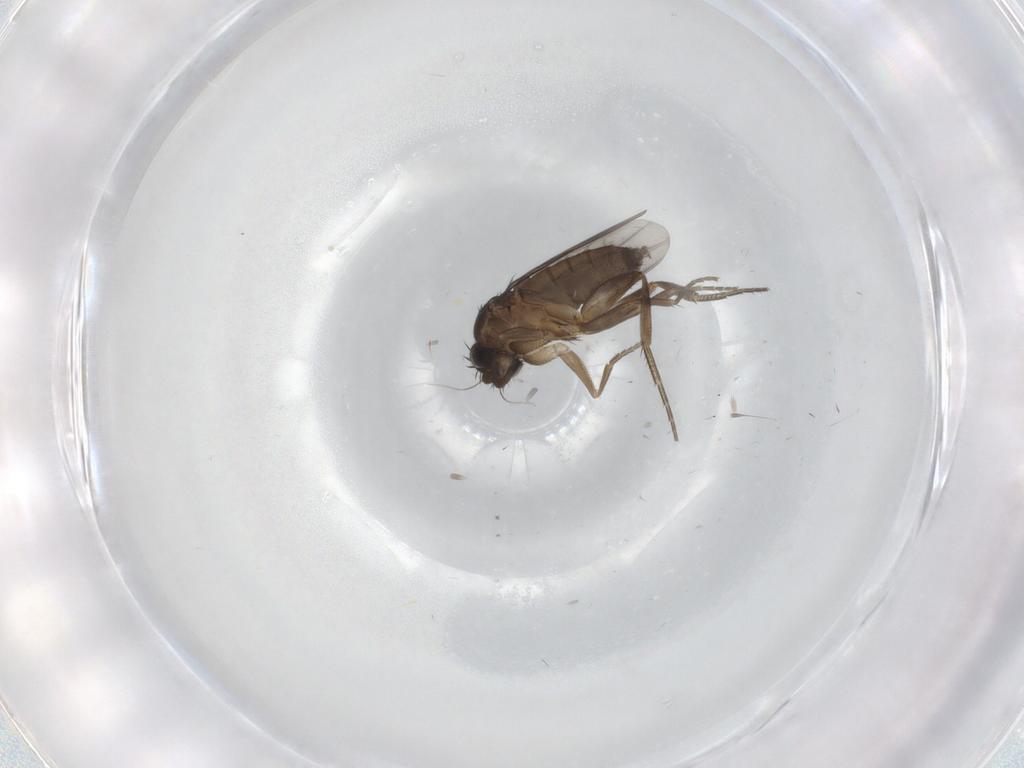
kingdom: Animalia
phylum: Arthropoda
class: Insecta
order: Diptera
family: Phoridae
